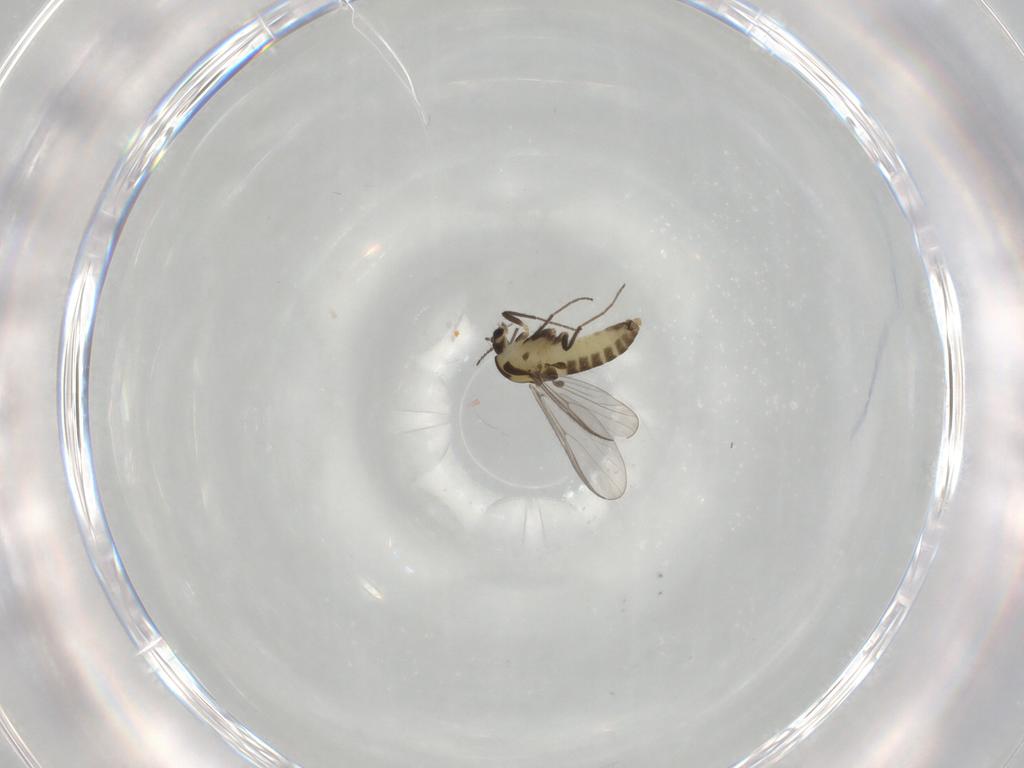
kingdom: Animalia
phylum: Arthropoda
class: Insecta
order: Diptera
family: Chironomidae
